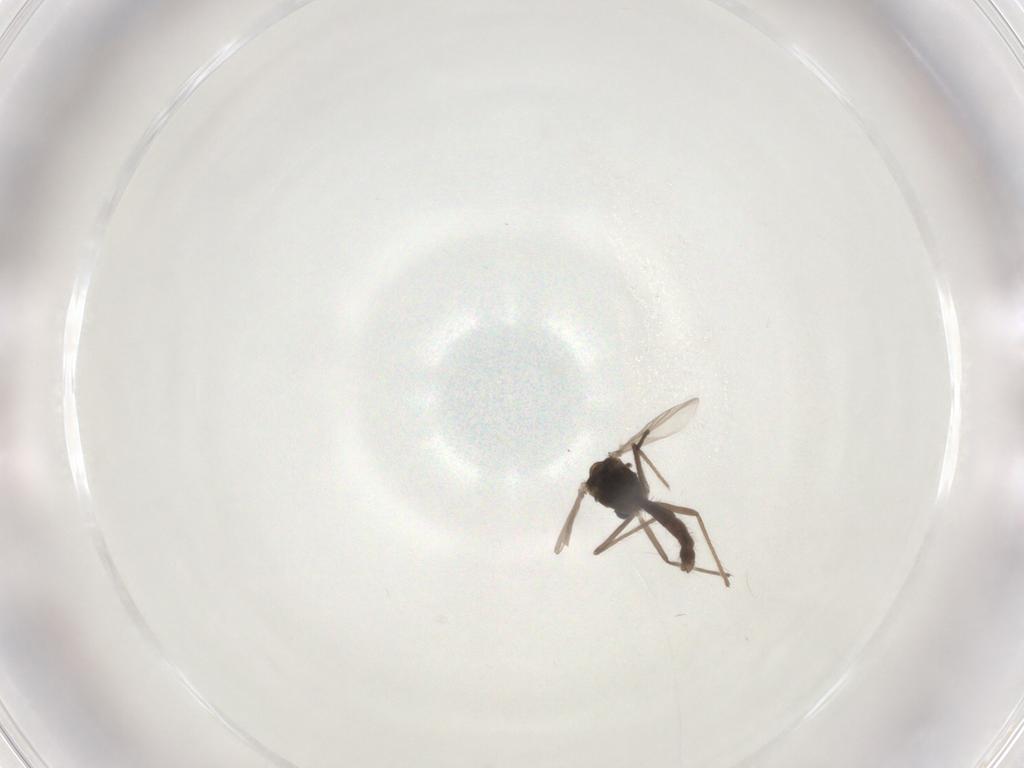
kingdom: Animalia
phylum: Arthropoda
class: Insecta
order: Diptera
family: Chironomidae
